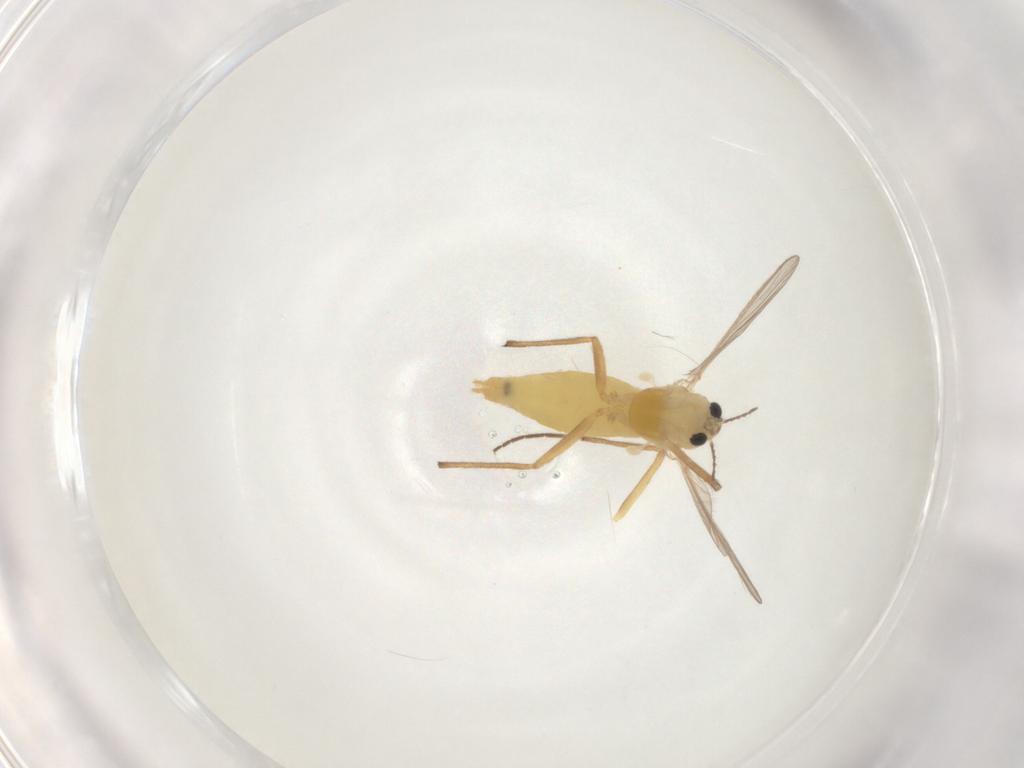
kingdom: Animalia
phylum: Arthropoda
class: Insecta
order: Diptera
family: Chironomidae
